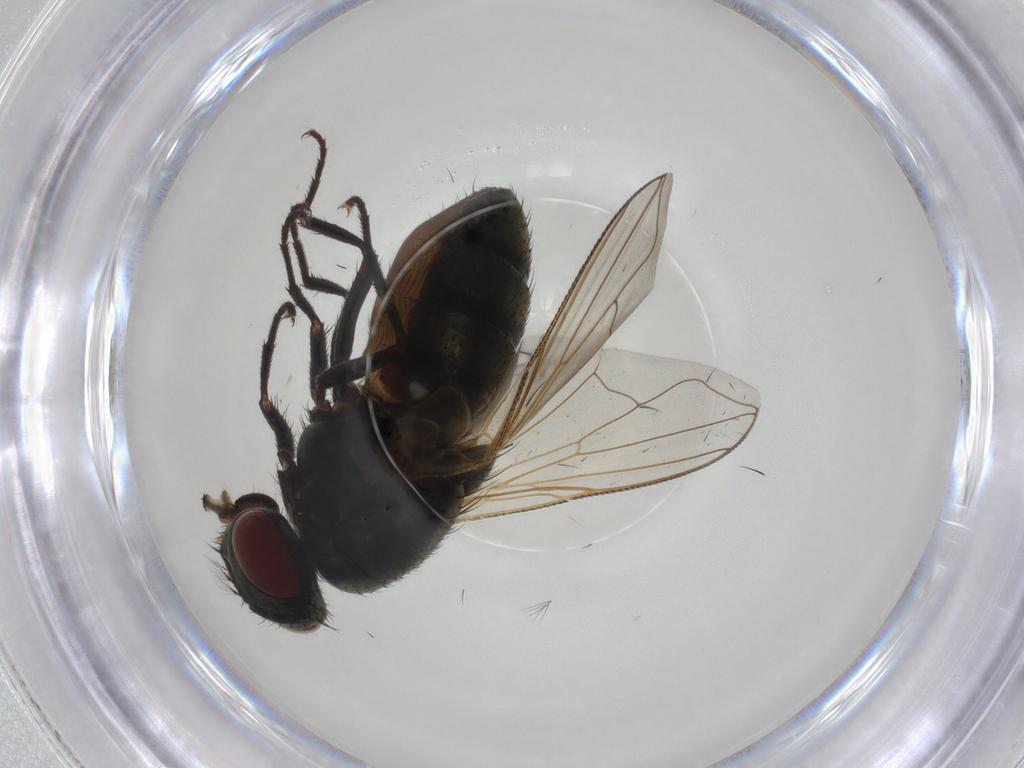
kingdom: Animalia
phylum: Arthropoda
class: Insecta
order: Diptera
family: Muscidae
